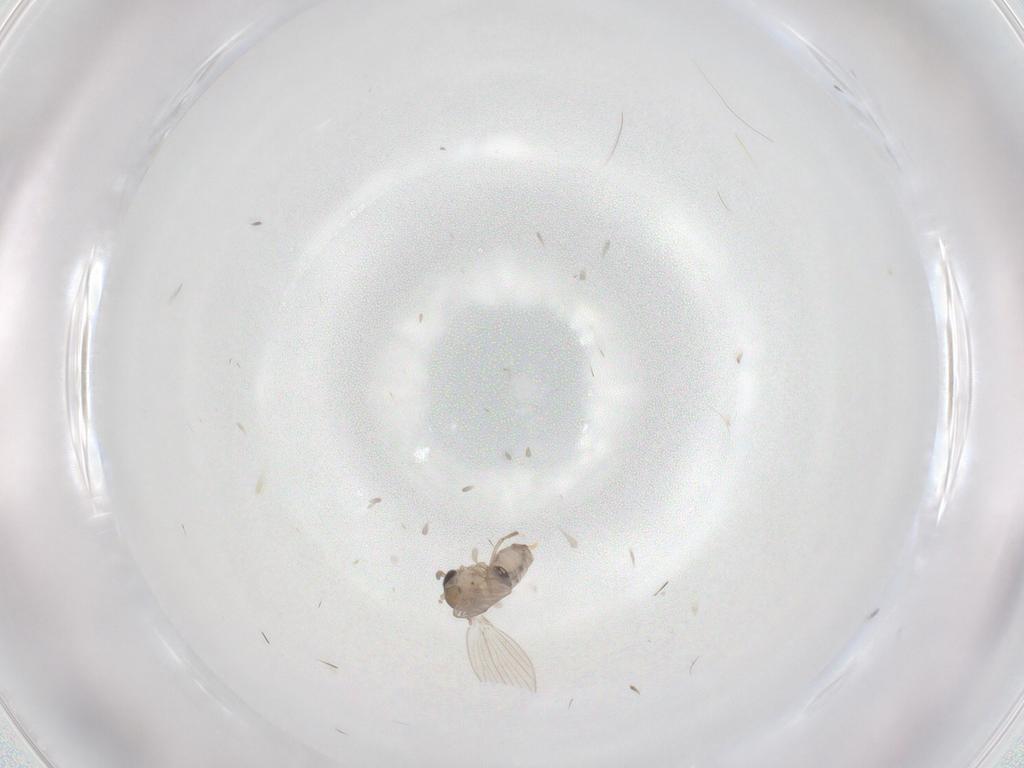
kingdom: Animalia
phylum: Arthropoda
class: Insecta
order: Diptera
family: Psychodidae
